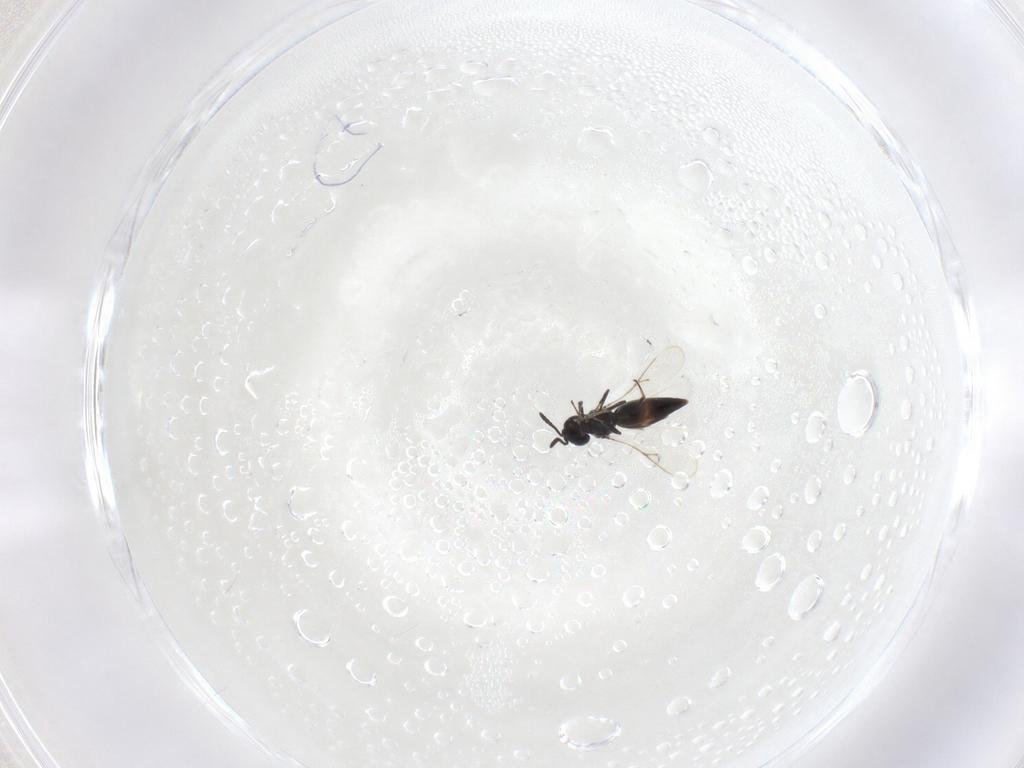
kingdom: Animalia
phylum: Arthropoda
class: Insecta
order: Hymenoptera
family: Scelionidae
